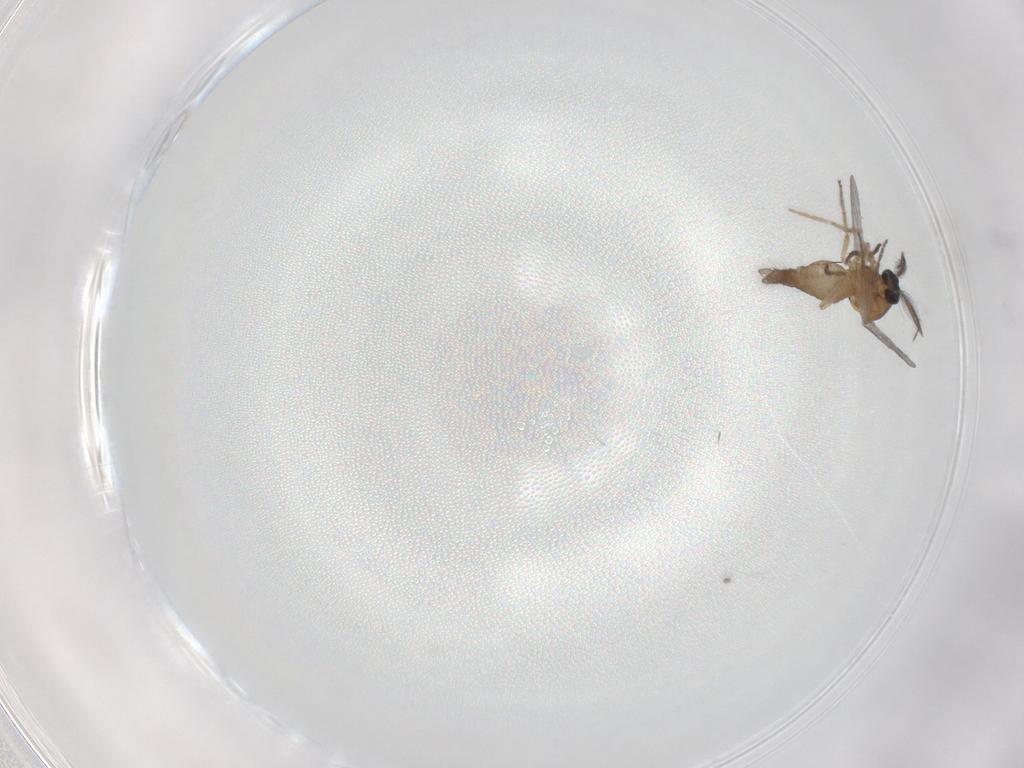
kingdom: Animalia
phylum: Arthropoda
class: Insecta
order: Diptera
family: Chironomidae
